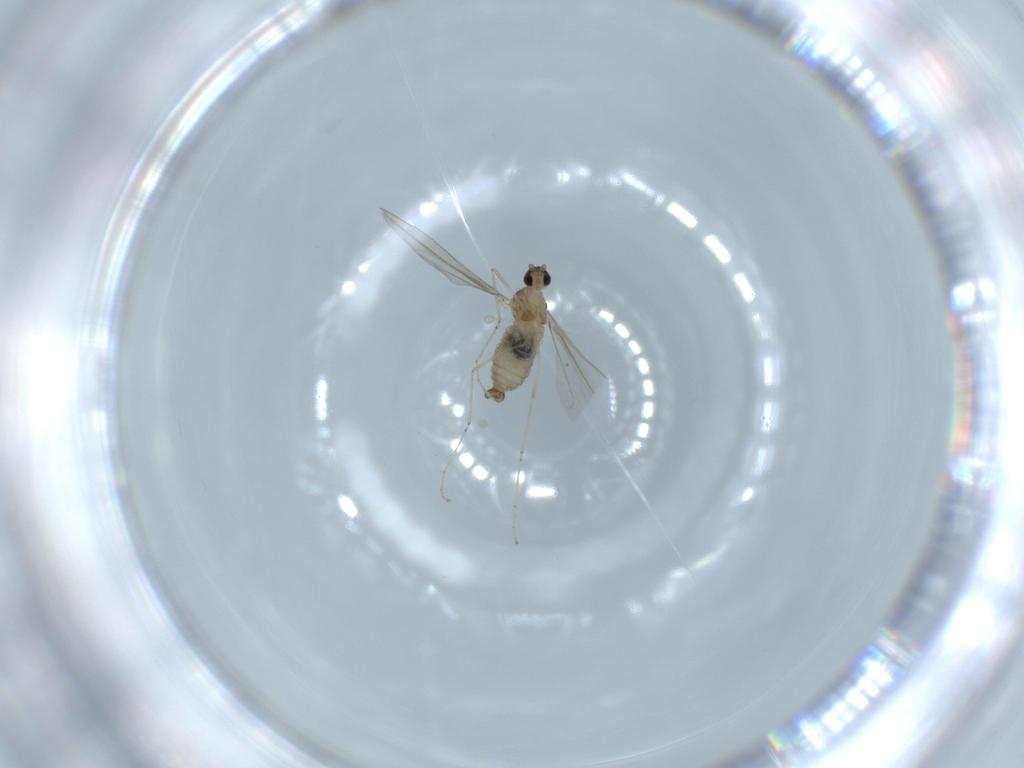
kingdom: Animalia
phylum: Arthropoda
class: Insecta
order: Diptera
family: Cecidomyiidae
